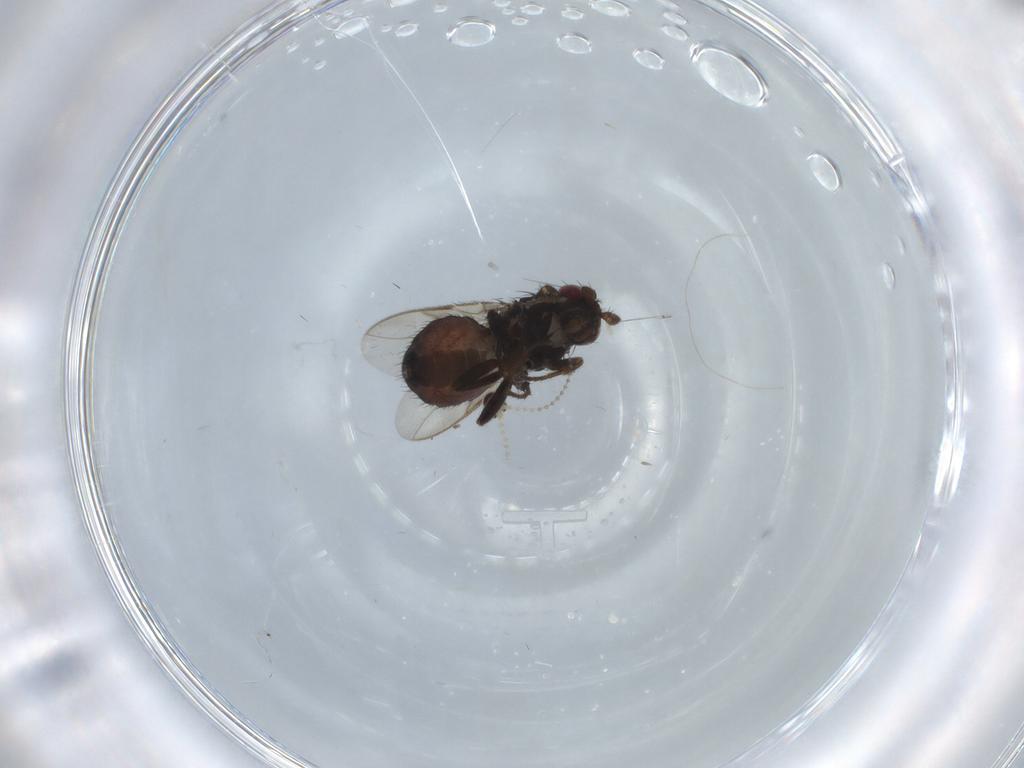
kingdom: Animalia
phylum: Arthropoda
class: Insecta
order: Diptera
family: Sphaeroceridae
